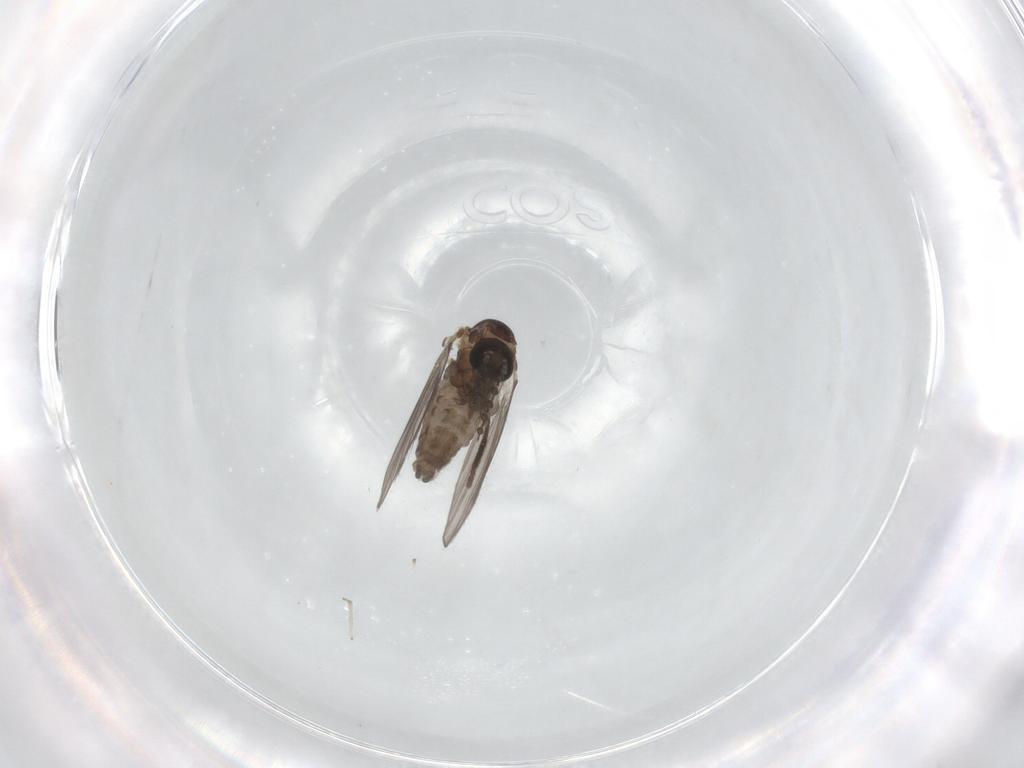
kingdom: Animalia
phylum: Arthropoda
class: Insecta
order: Diptera
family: Psychodidae
